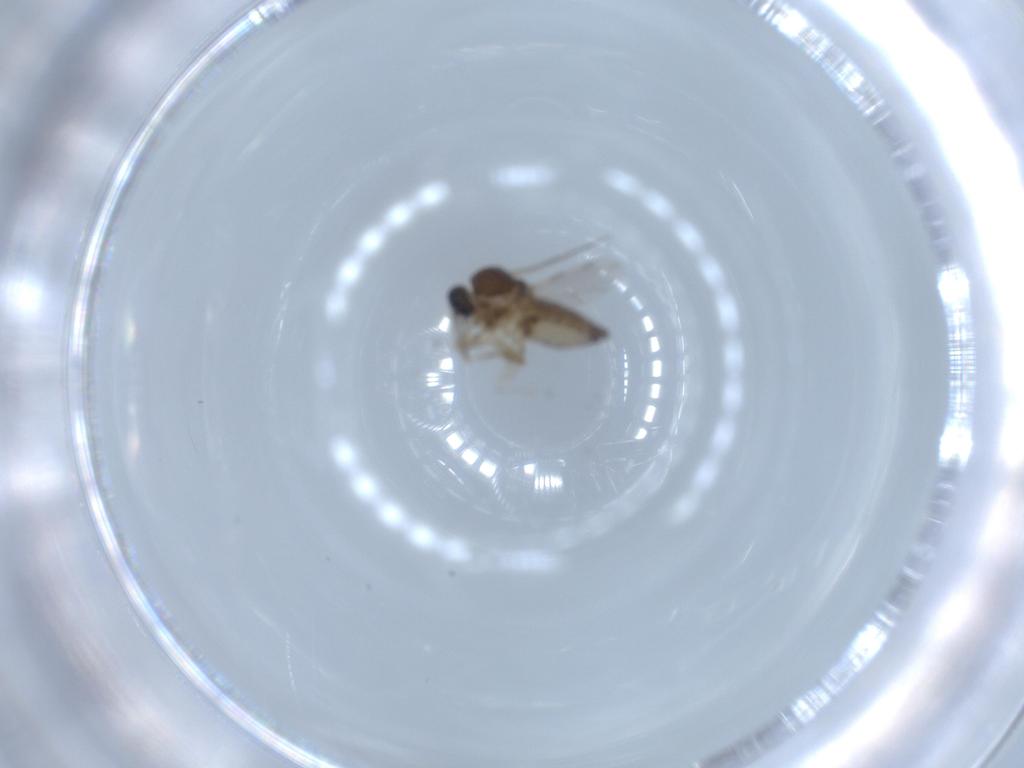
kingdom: Animalia
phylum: Arthropoda
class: Insecta
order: Diptera
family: Ceratopogonidae
